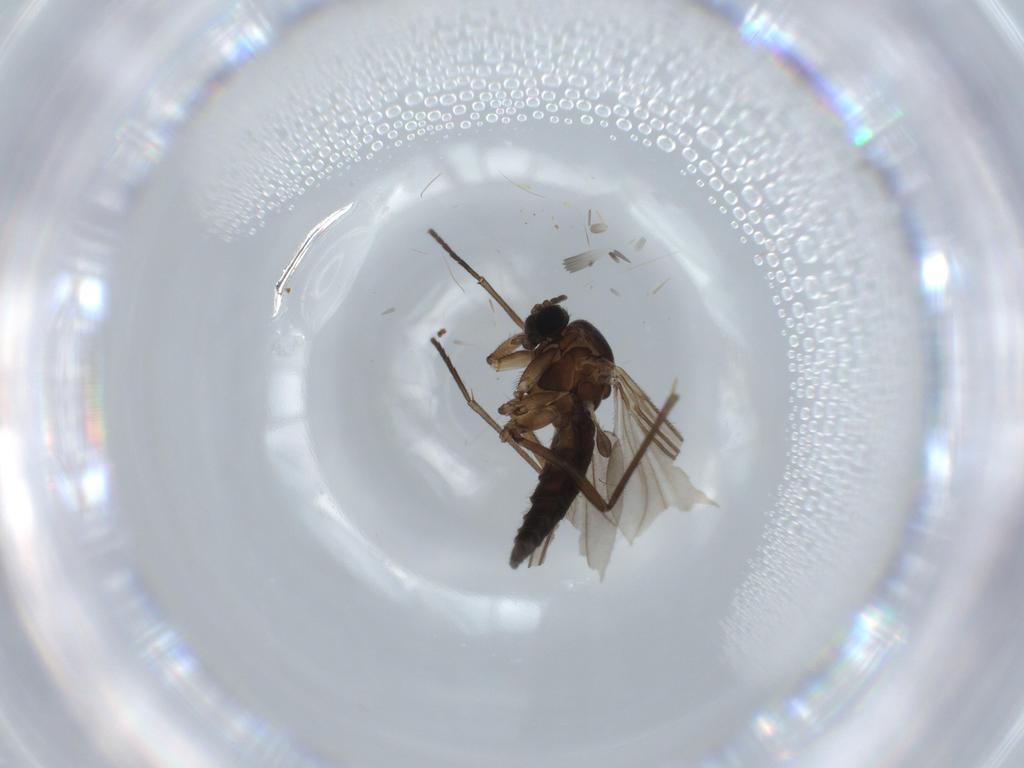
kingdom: Animalia
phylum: Arthropoda
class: Insecta
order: Diptera
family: Sciaridae
